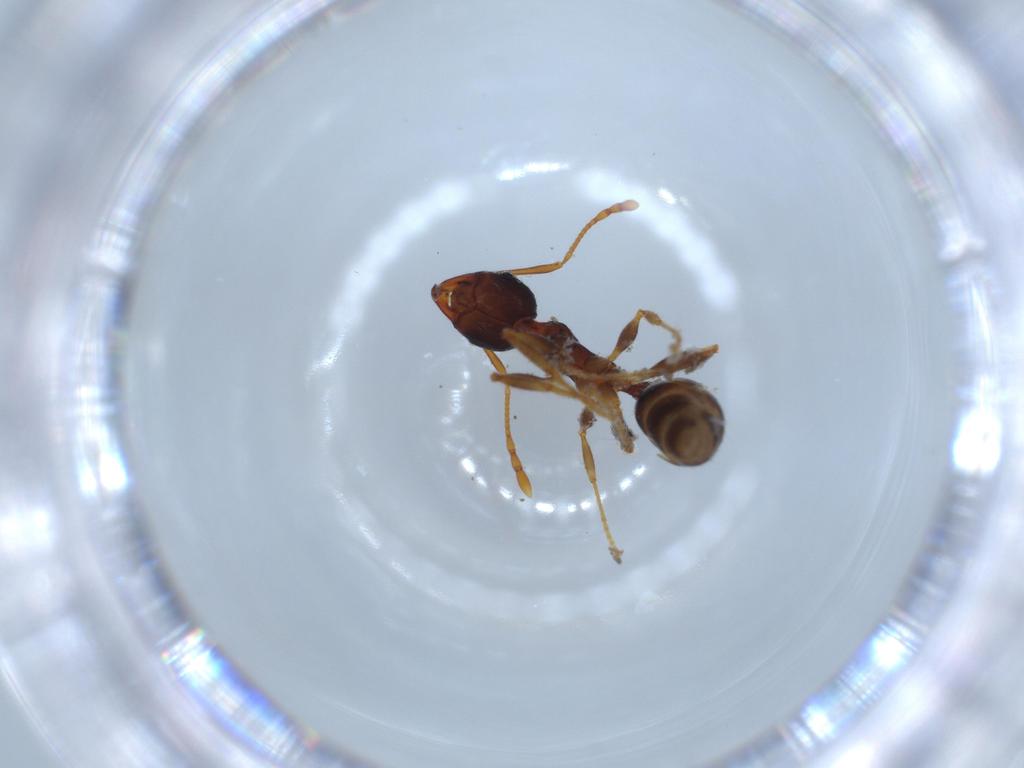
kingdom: Animalia
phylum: Arthropoda
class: Insecta
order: Hymenoptera
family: Formicidae
